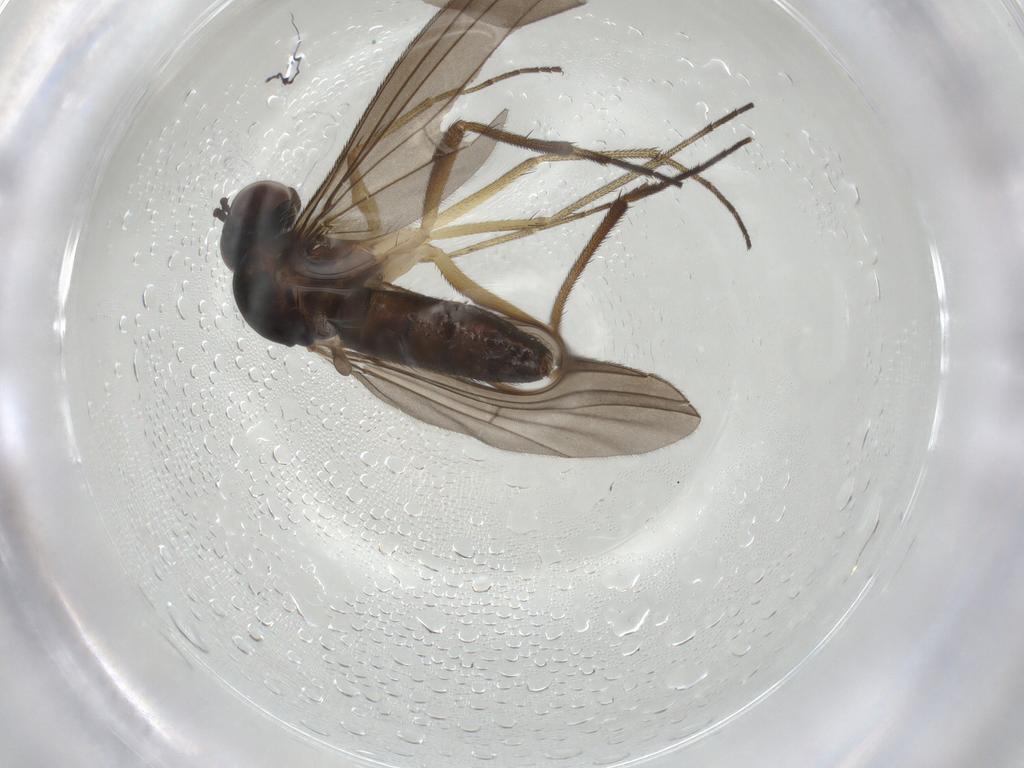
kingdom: Animalia
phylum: Arthropoda
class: Insecta
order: Diptera
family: Dolichopodidae
